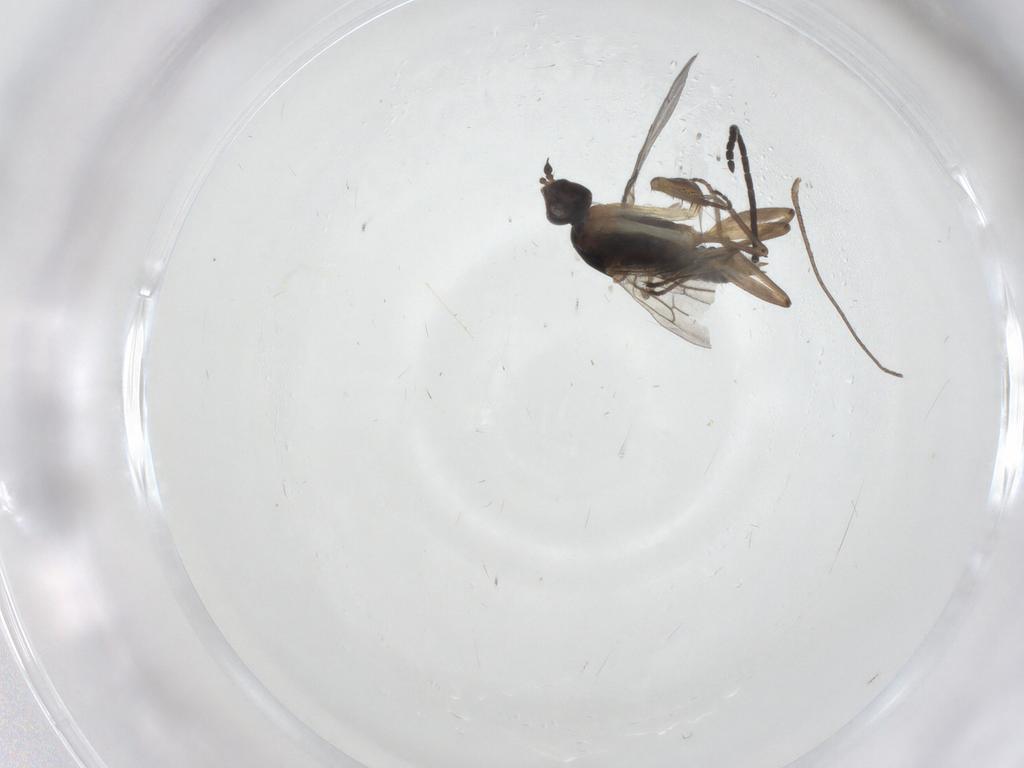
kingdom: Animalia
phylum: Arthropoda
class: Insecta
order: Diptera
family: Empididae
